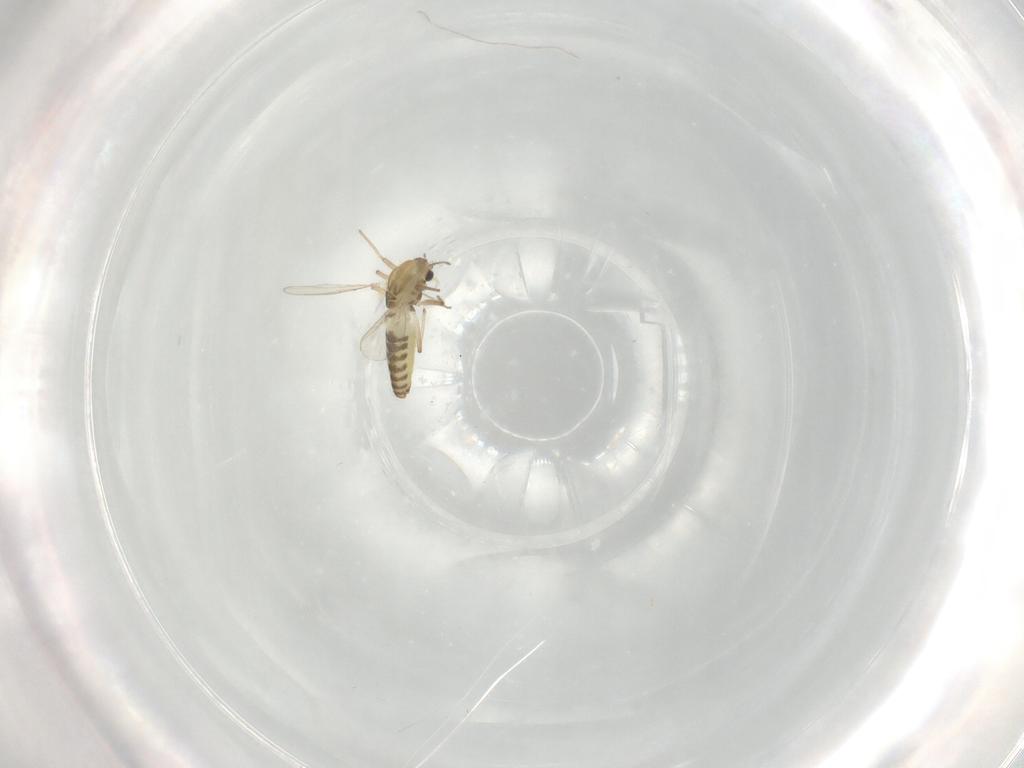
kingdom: Animalia
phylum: Arthropoda
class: Insecta
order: Diptera
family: Chironomidae
